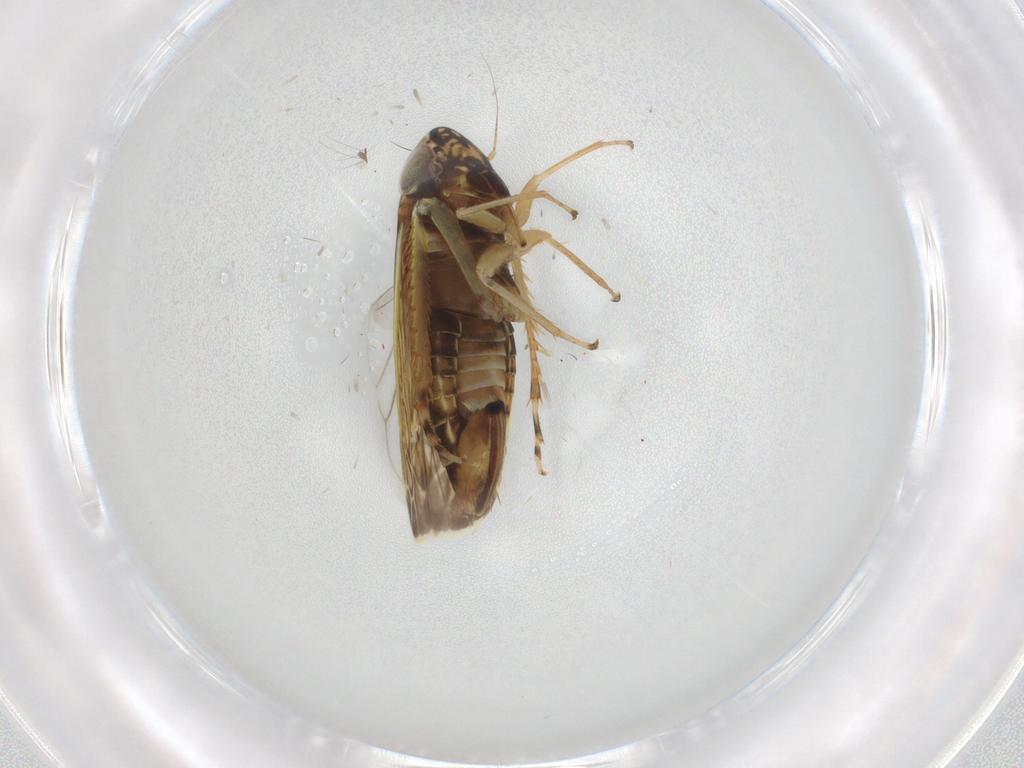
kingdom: Animalia
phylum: Arthropoda
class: Insecta
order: Hemiptera
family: Cicadellidae
